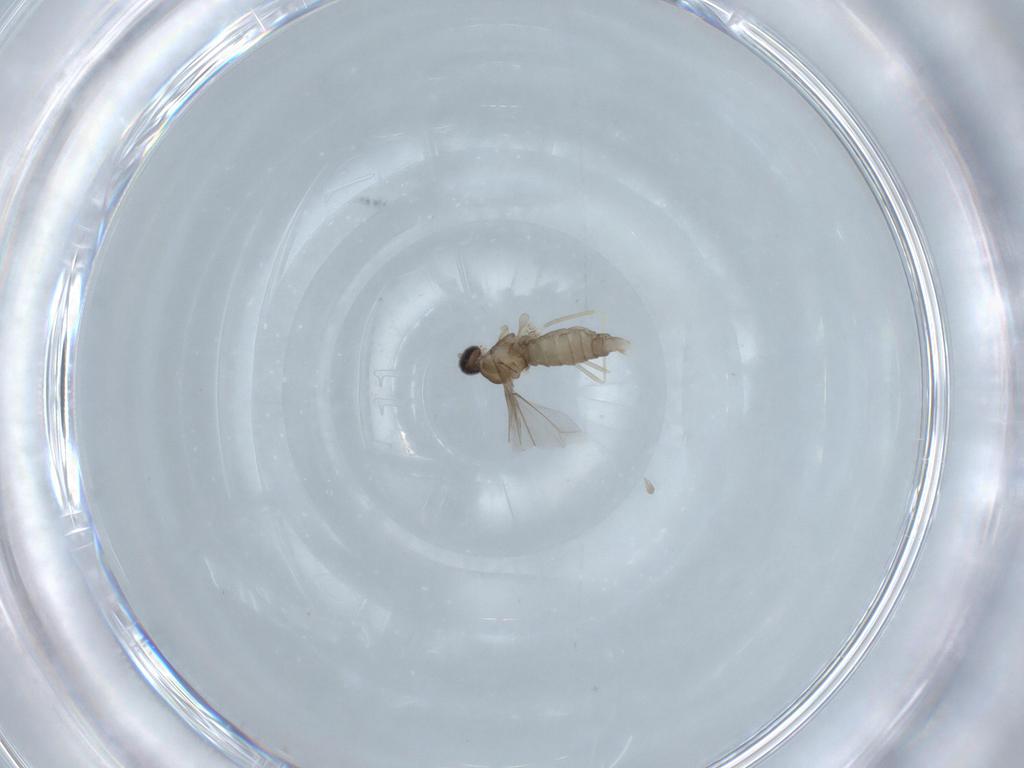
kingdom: Animalia
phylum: Arthropoda
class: Insecta
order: Diptera
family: Cecidomyiidae
